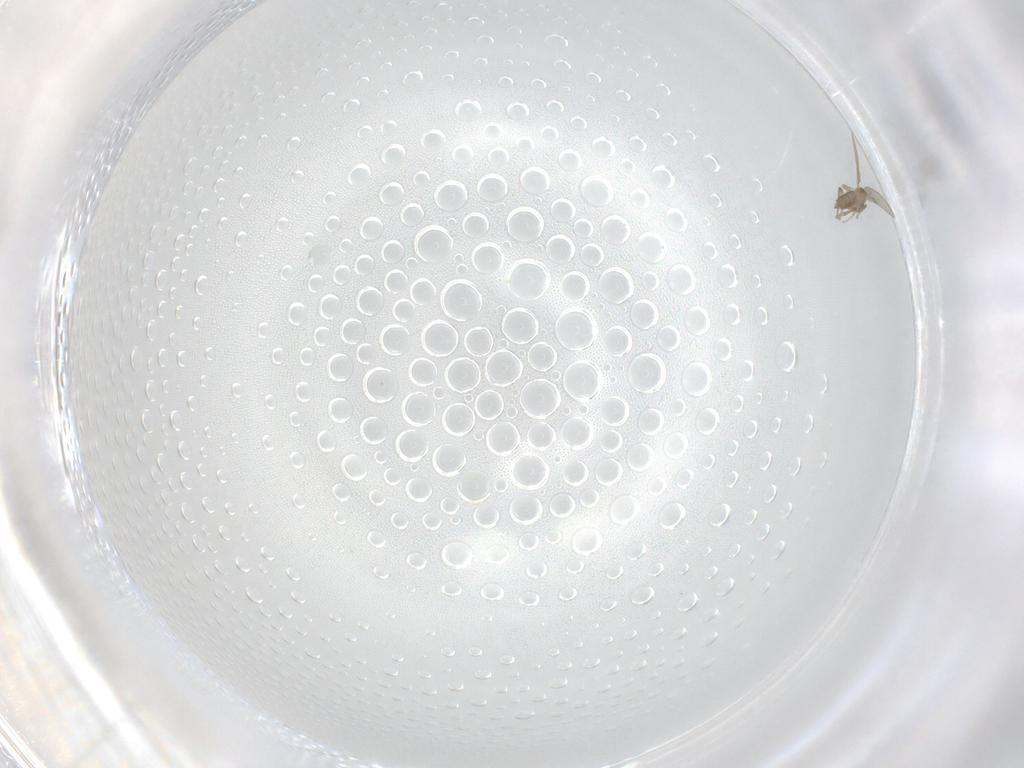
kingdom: Animalia
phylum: Arthropoda
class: Insecta
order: Diptera
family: Phoridae
